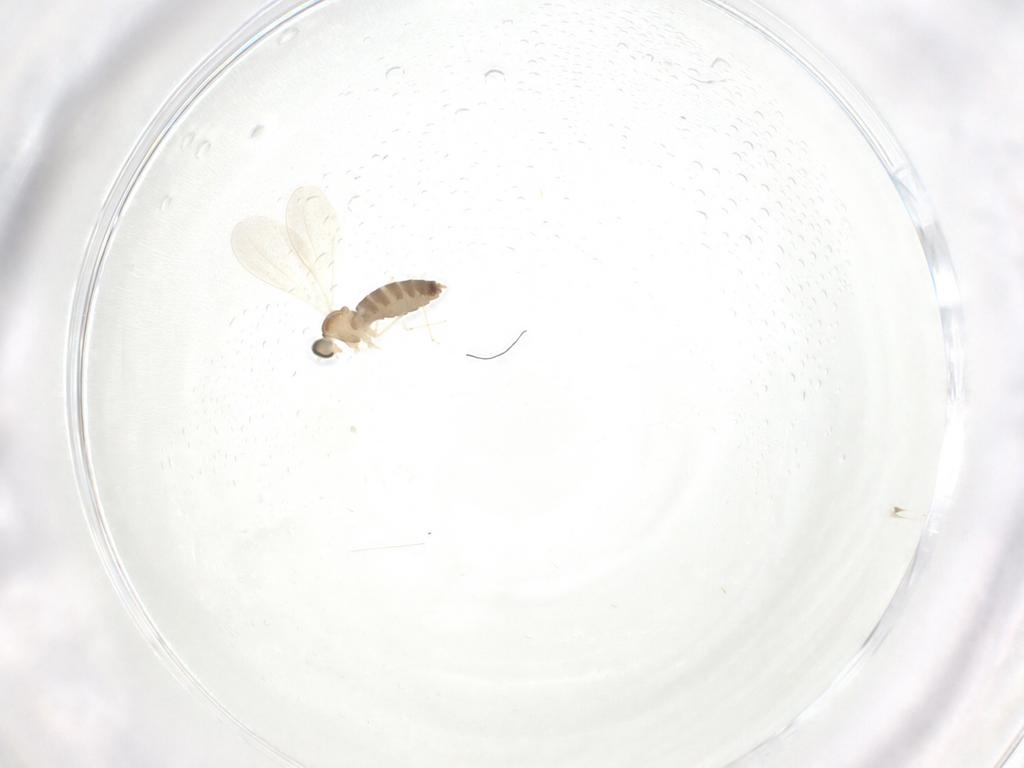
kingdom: Animalia
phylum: Arthropoda
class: Insecta
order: Diptera
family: Cecidomyiidae
